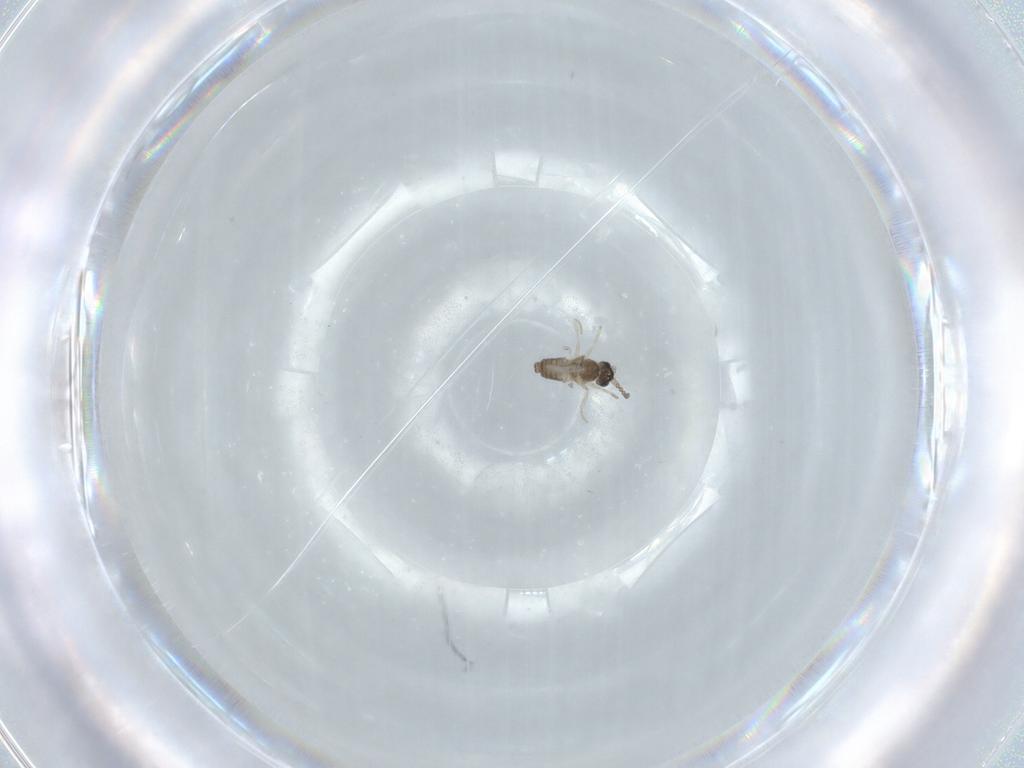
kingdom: Animalia
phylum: Arthropoda
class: Insecta
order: Diptera
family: Cecidomyiidae
